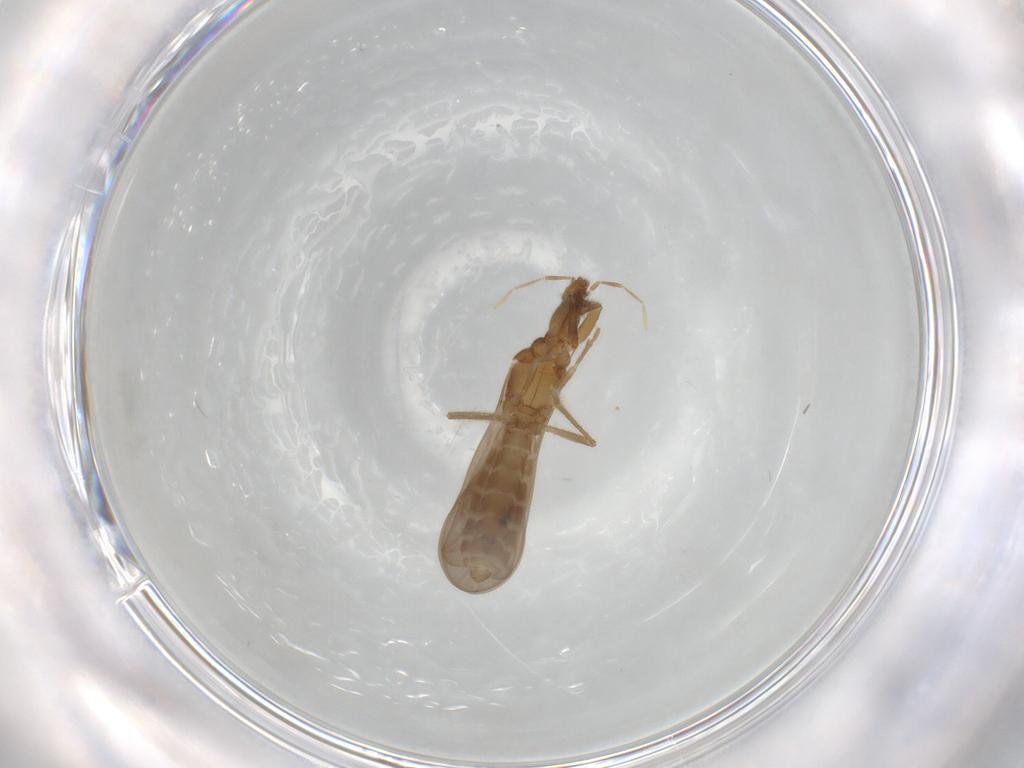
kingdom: Animalia
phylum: Arthropoda
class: Insecta
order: Hemiptera
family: Enicocephalidae
